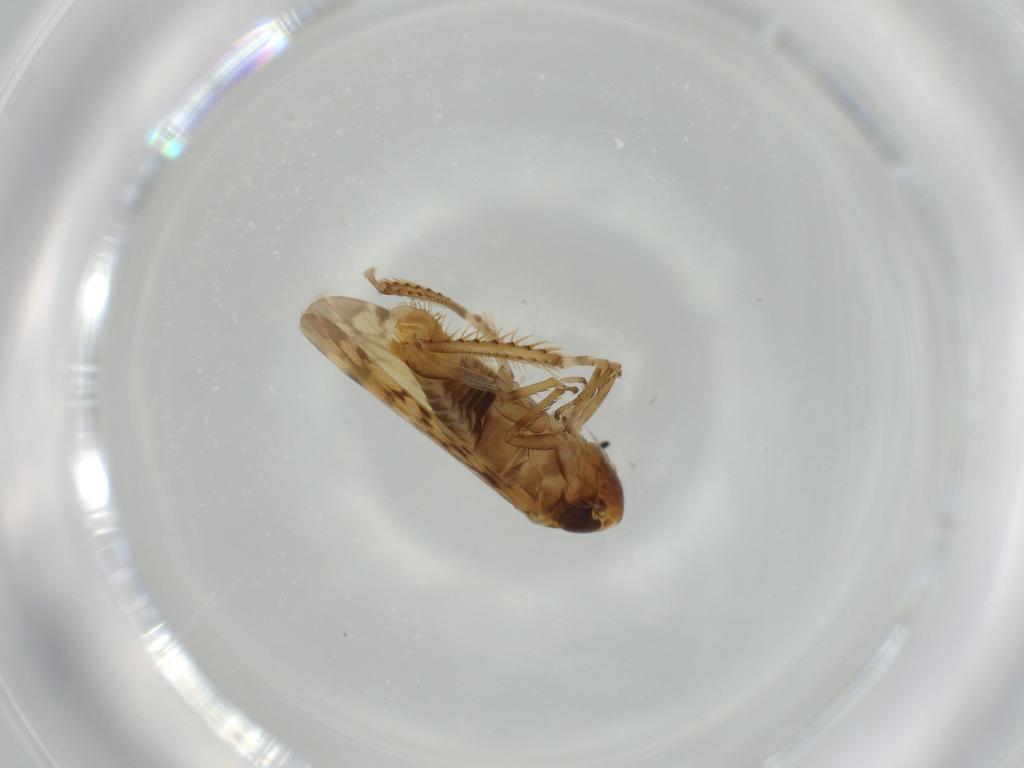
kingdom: Animalia
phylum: Arthropoda
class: Insecta
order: Hemiptera
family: Cicadellidae
